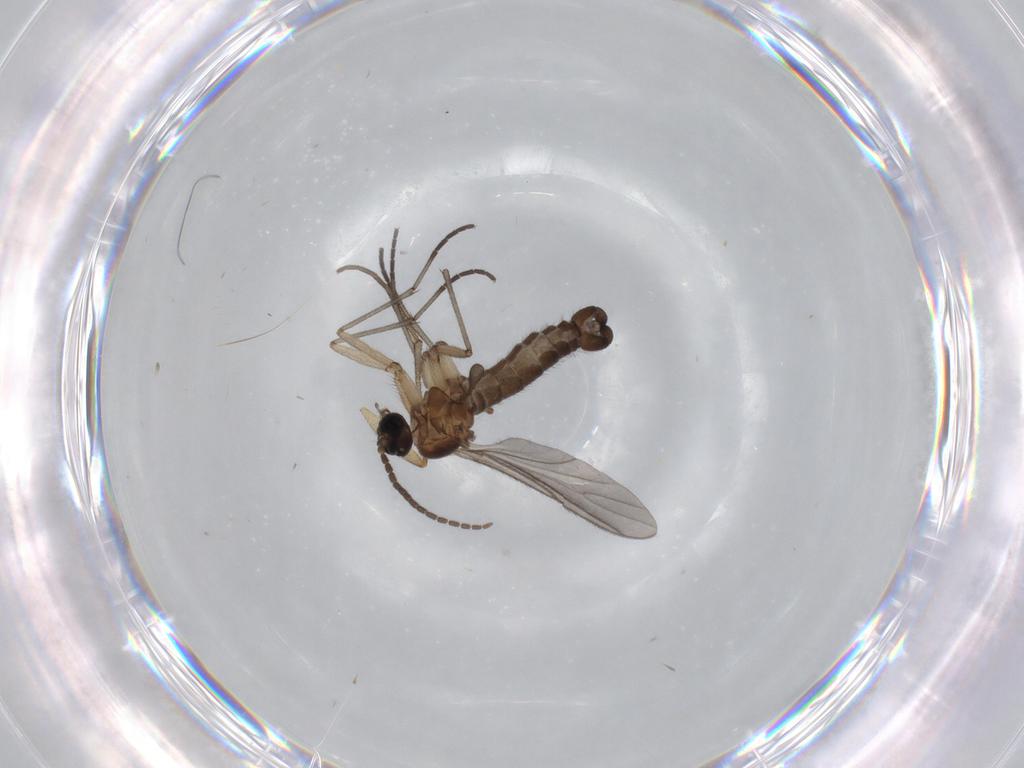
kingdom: Animalia
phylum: Arthropoda
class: Insecta
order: Diptera
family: Sciaridae
